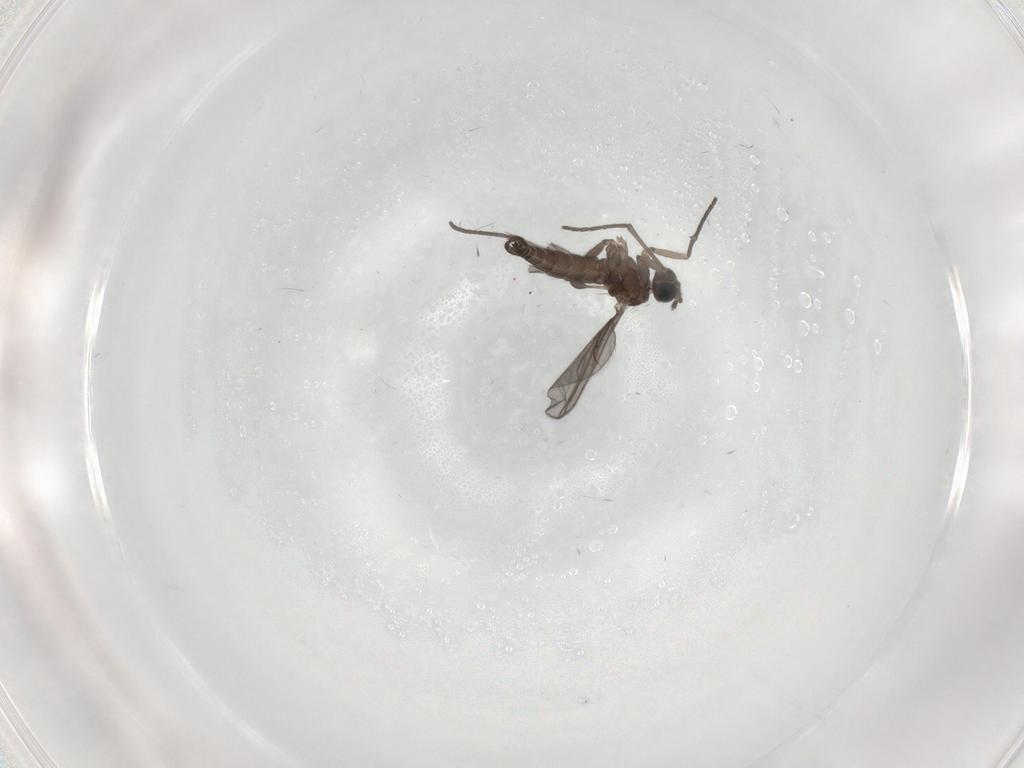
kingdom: Animalia
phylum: Arthropoda
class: Insecta
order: Diptera
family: Sciaridae
